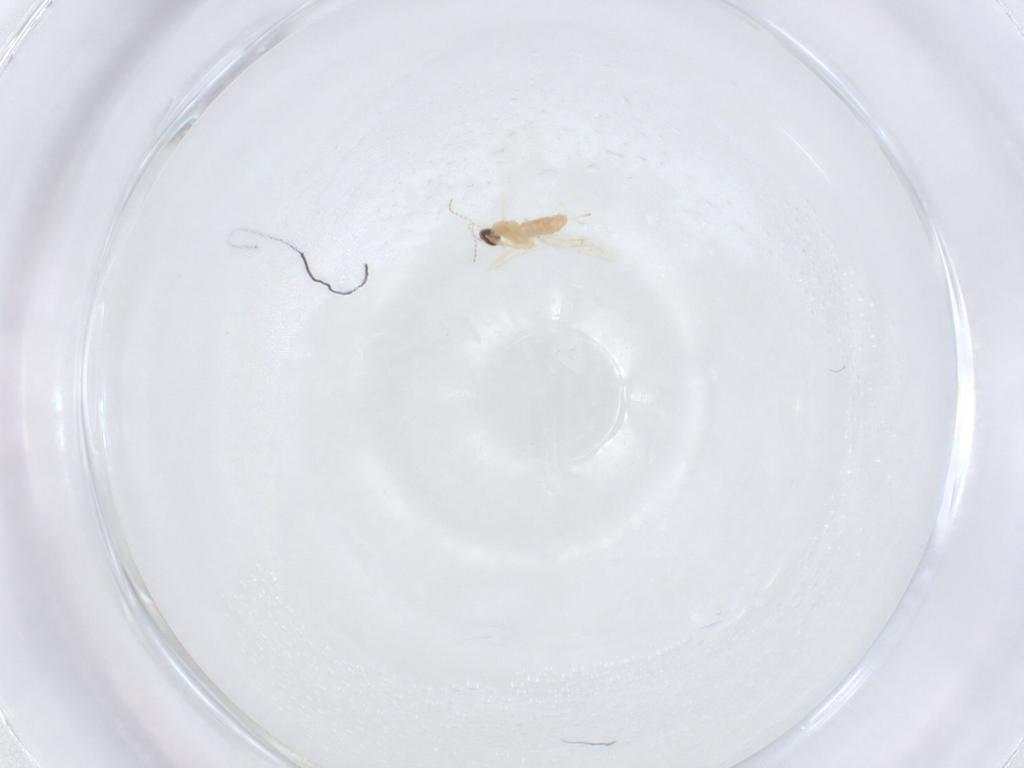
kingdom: Animalia
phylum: Arthropoda
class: Insecta
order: Diptera
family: Cecidomyiidae
